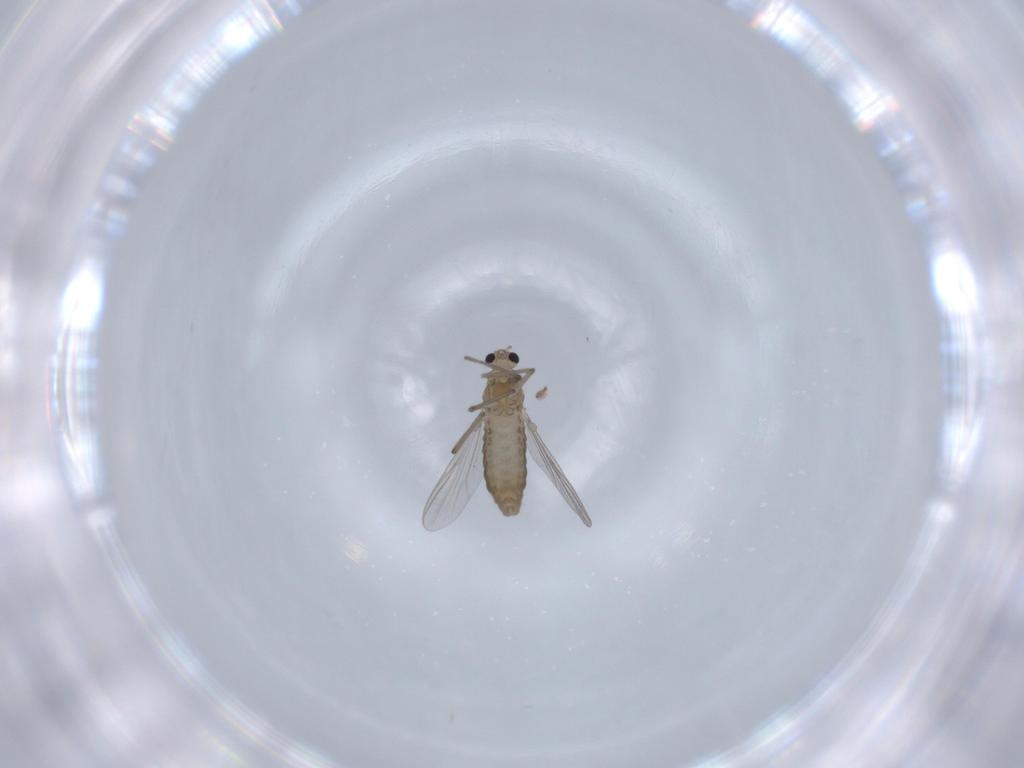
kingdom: Animalia
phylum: Arthropoda
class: Insecta
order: Diptera
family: Chironomidae
